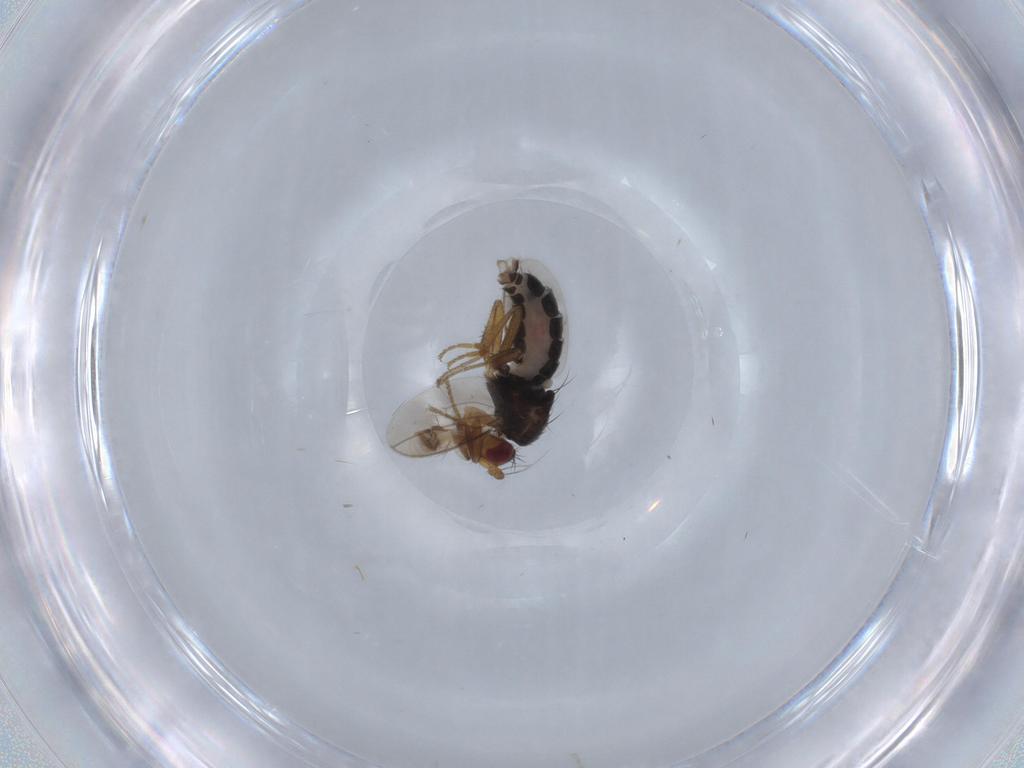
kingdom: Animalia
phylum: Arthropoda
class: Insecta
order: Diptera
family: Sphaeroceridae
